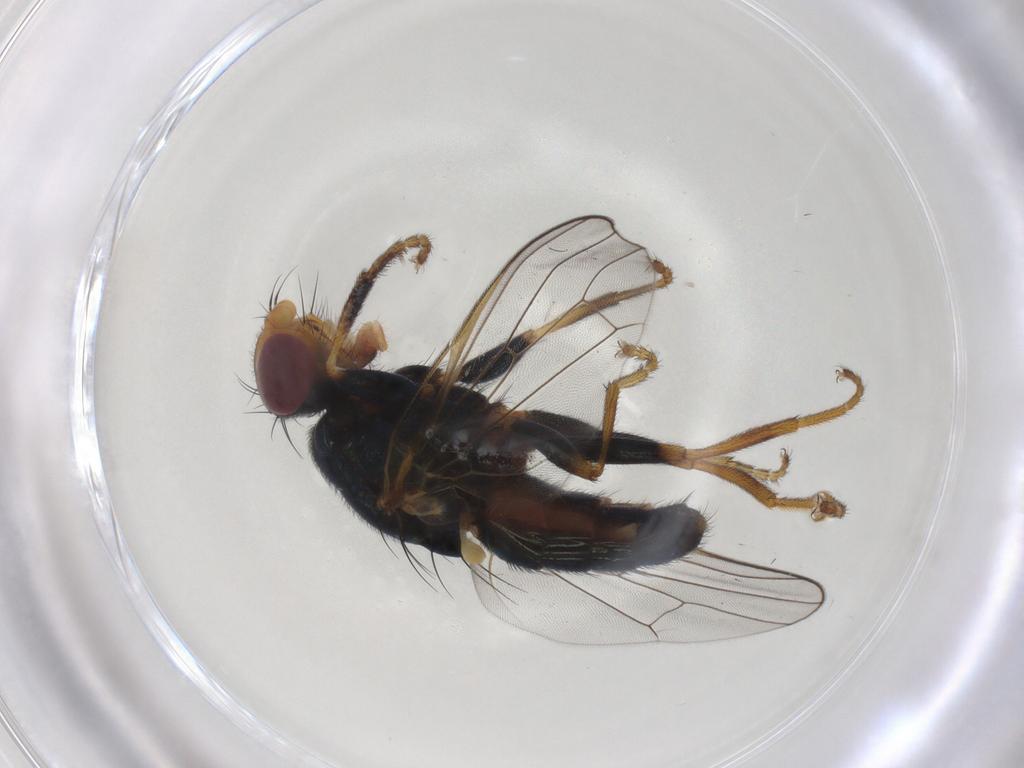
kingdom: Animalia
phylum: Arthropoda
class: Insecta
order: Diptera
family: Piophilidae
